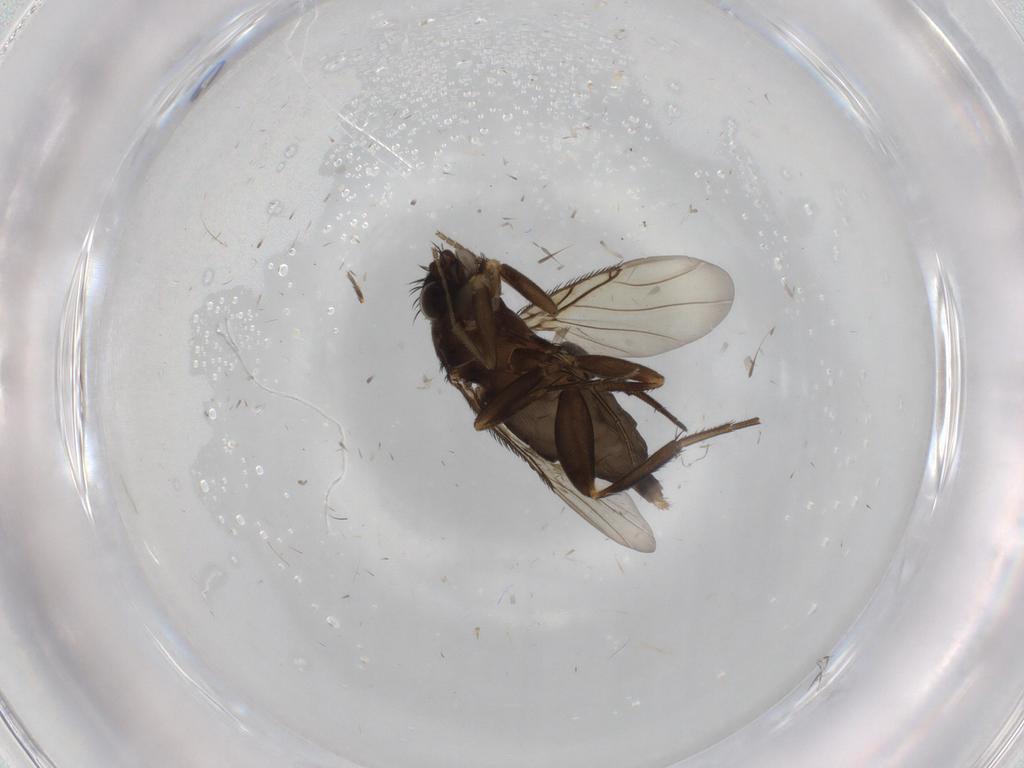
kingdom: Animalia
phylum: Arthropoda
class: Insecta
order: Diptera
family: Phoridae
